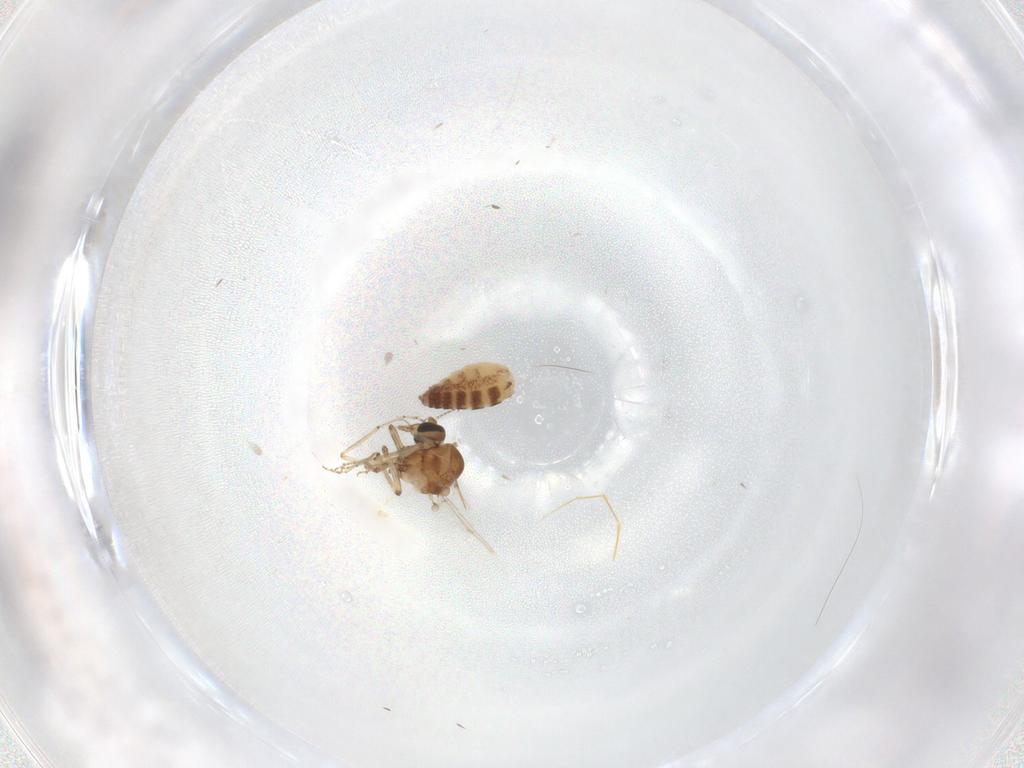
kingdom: Animalia
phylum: Arthropoda
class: Insecta
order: Diptera
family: Ceratopogonidae
